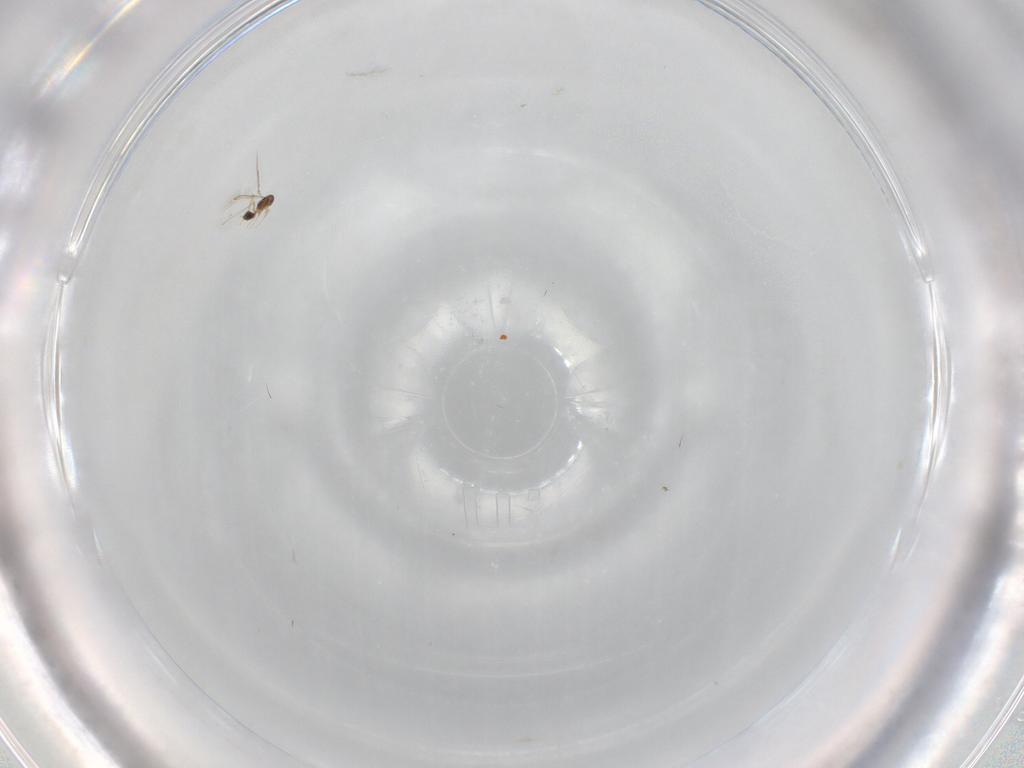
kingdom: Animalia
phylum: Arthropoda
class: Insecta
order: Hymenoptera
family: Ichneumonidae
